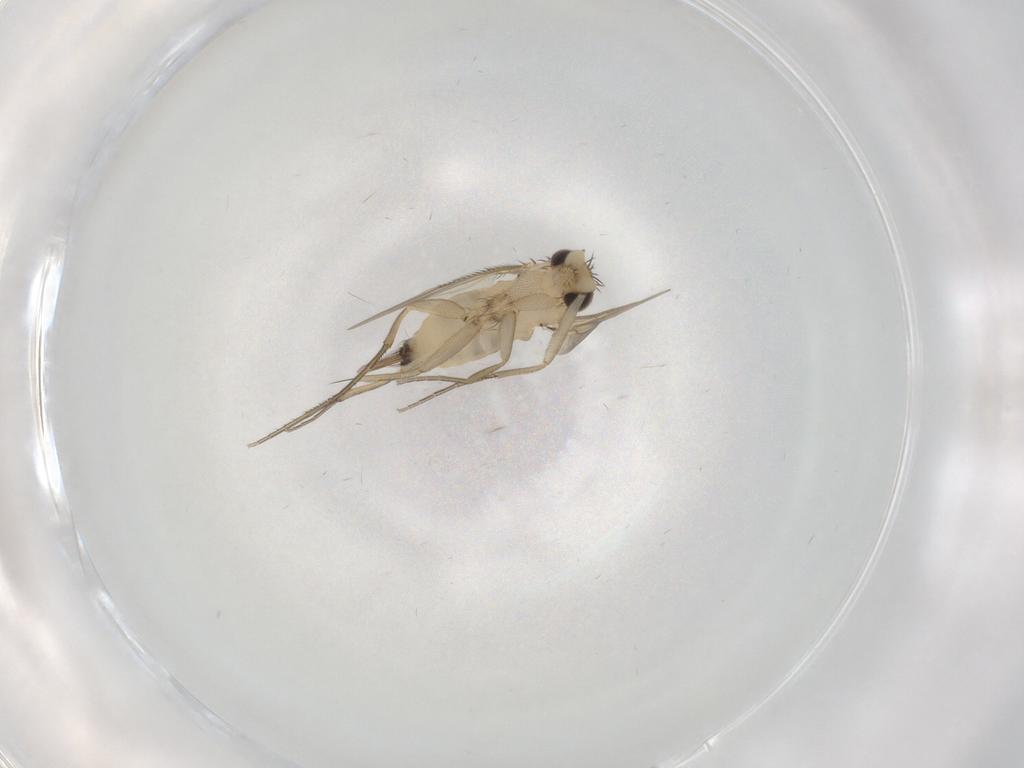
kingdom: Animalia
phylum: Arthropoda
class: Insecta
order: Diptera
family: Phoridae
